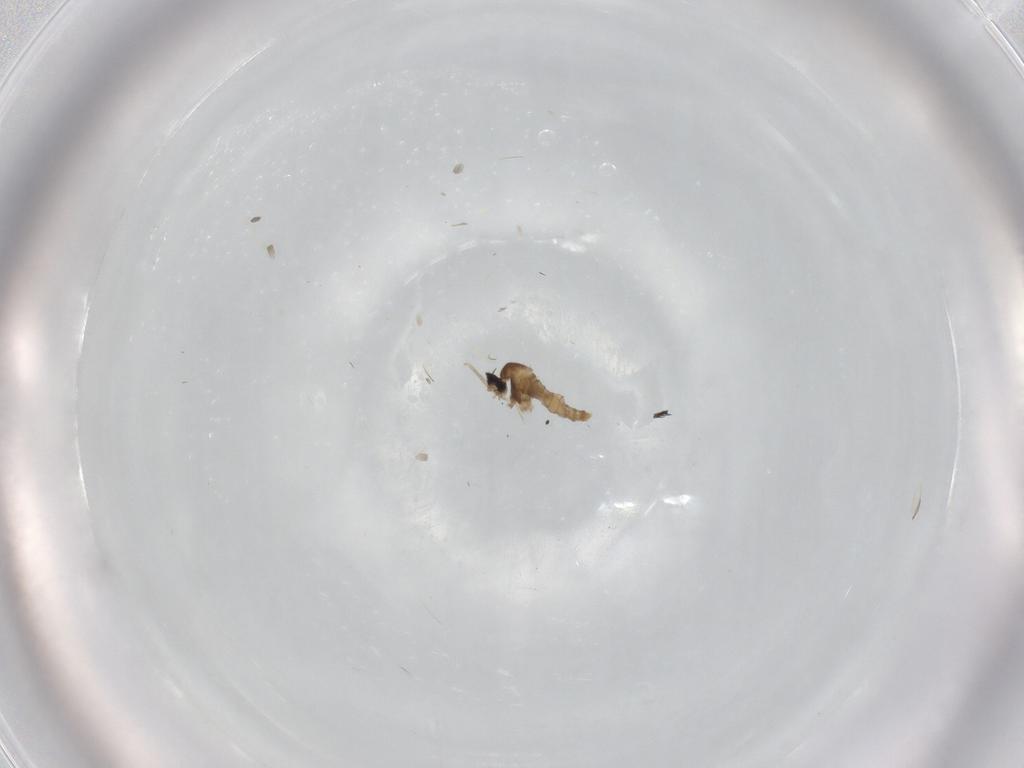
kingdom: Animalia
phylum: Arthropoda
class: Insecta
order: Diptera
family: Cecidomyiidae
